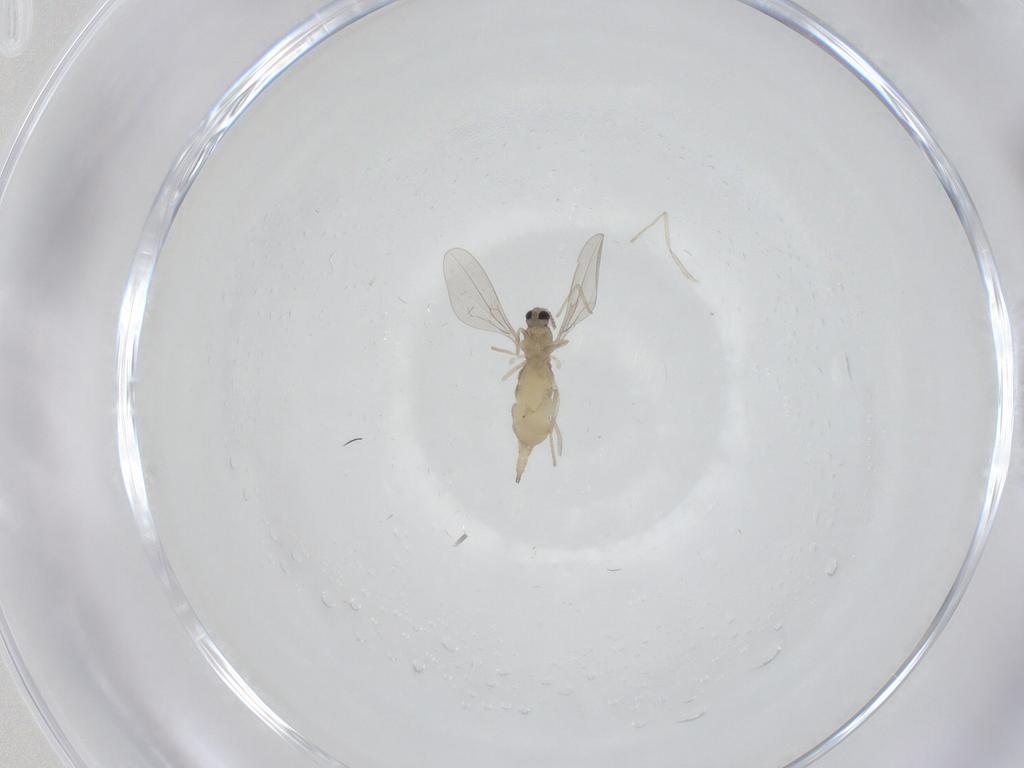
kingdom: Animalia
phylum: Arthropoda
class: Insecta
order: Diptera
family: Cecidomyiidae
